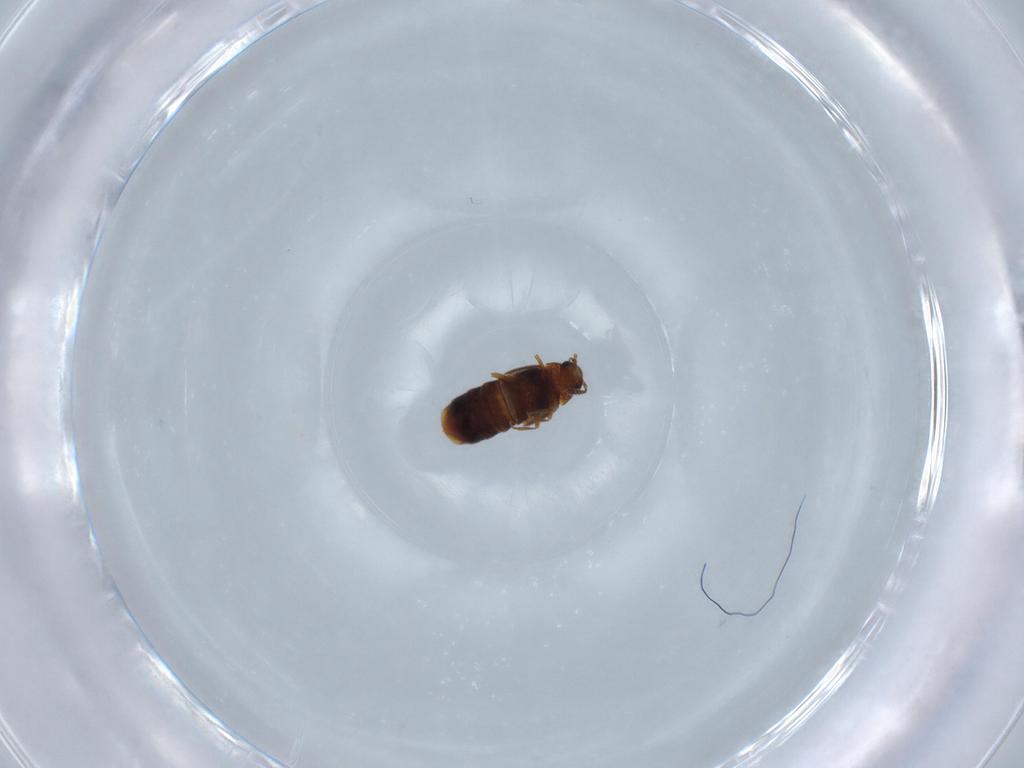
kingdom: Animalia
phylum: Arthropoda
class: Insecta
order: Coleoptera
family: Staphylinidae
